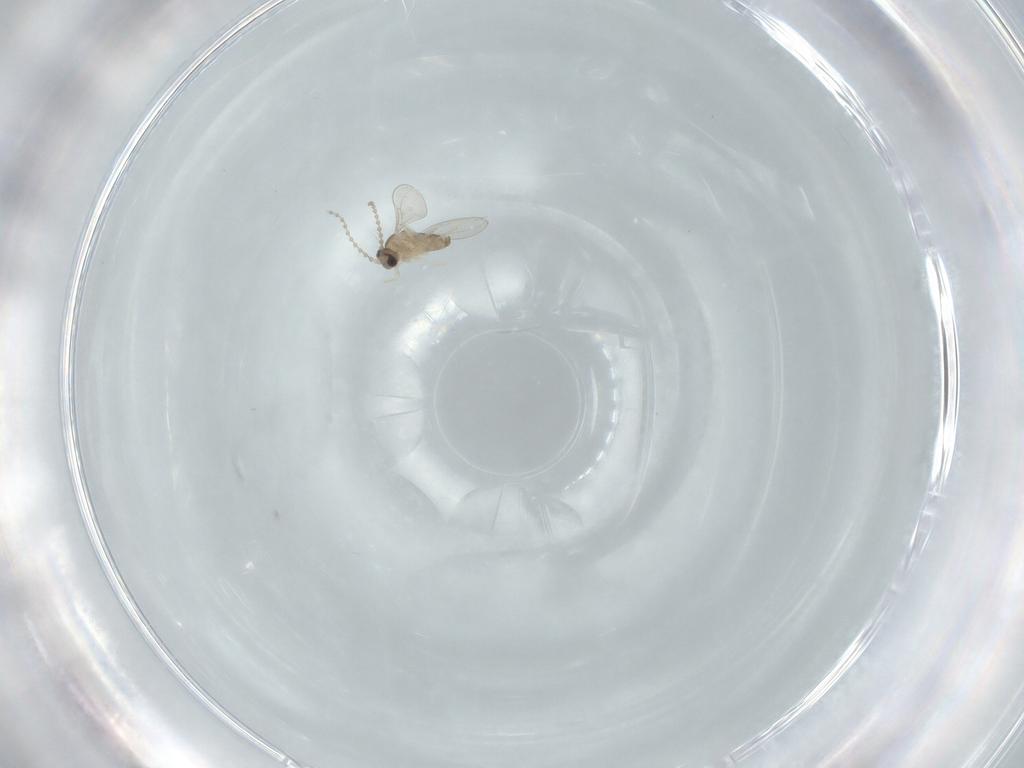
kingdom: Animalia
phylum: Arthropoda
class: Insecta
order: Diptera
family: Cecidomyiidae
